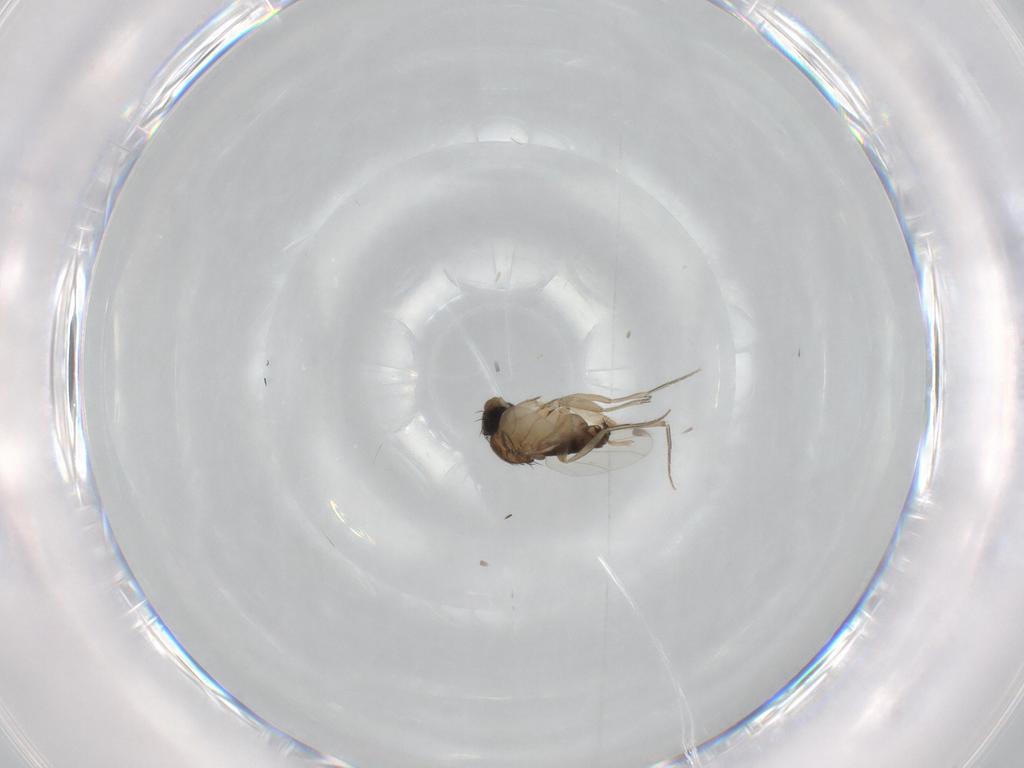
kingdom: Animalia
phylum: Arthropoda
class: Insecta
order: Diptera
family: Phoridae
